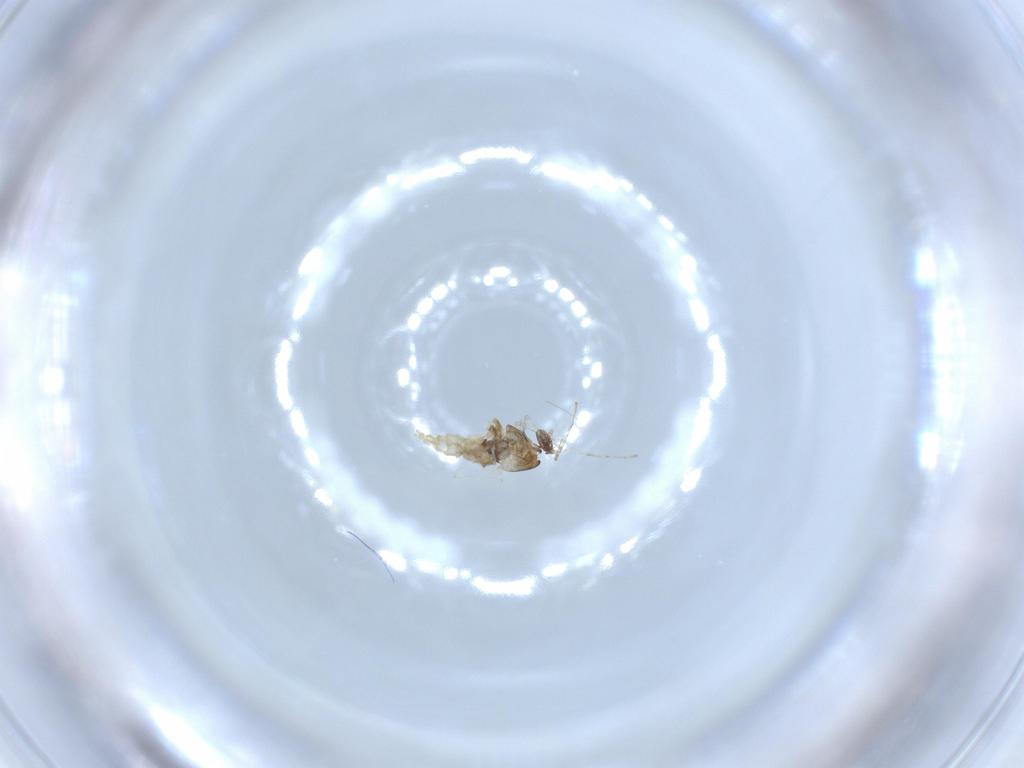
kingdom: Animalia
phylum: Arthropoda
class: Insecta
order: Diptera
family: Cecidomyiidae
